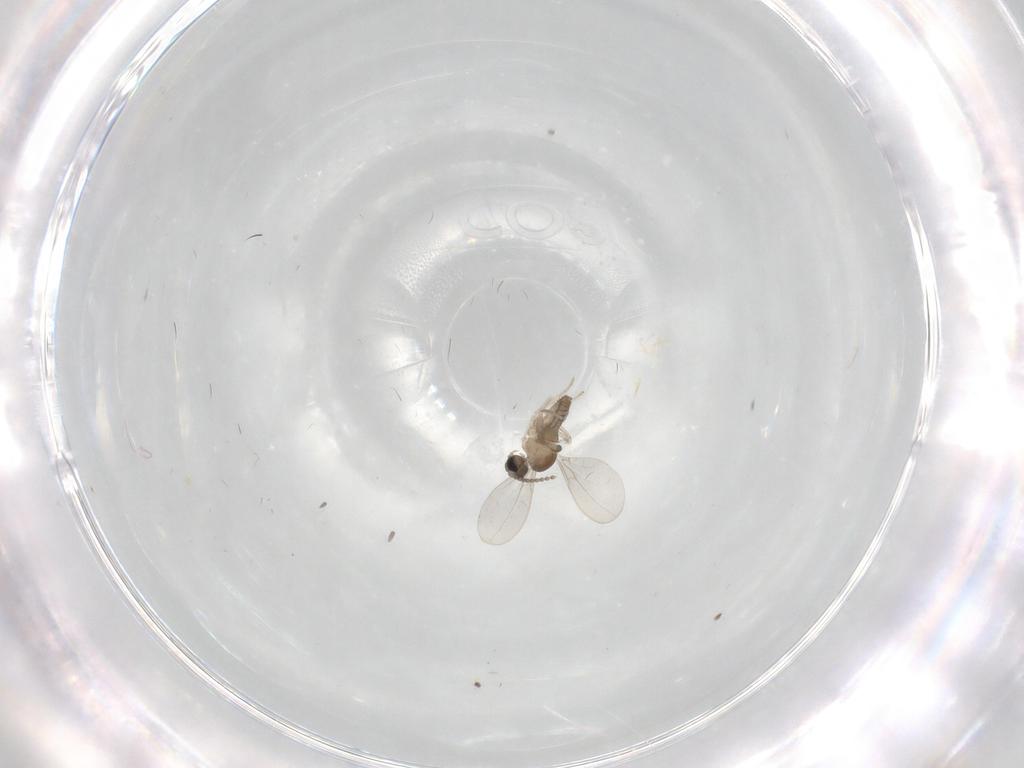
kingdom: Animalia
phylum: Arthropoda
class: Insecta
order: Diptera
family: Cecidomyiidae
